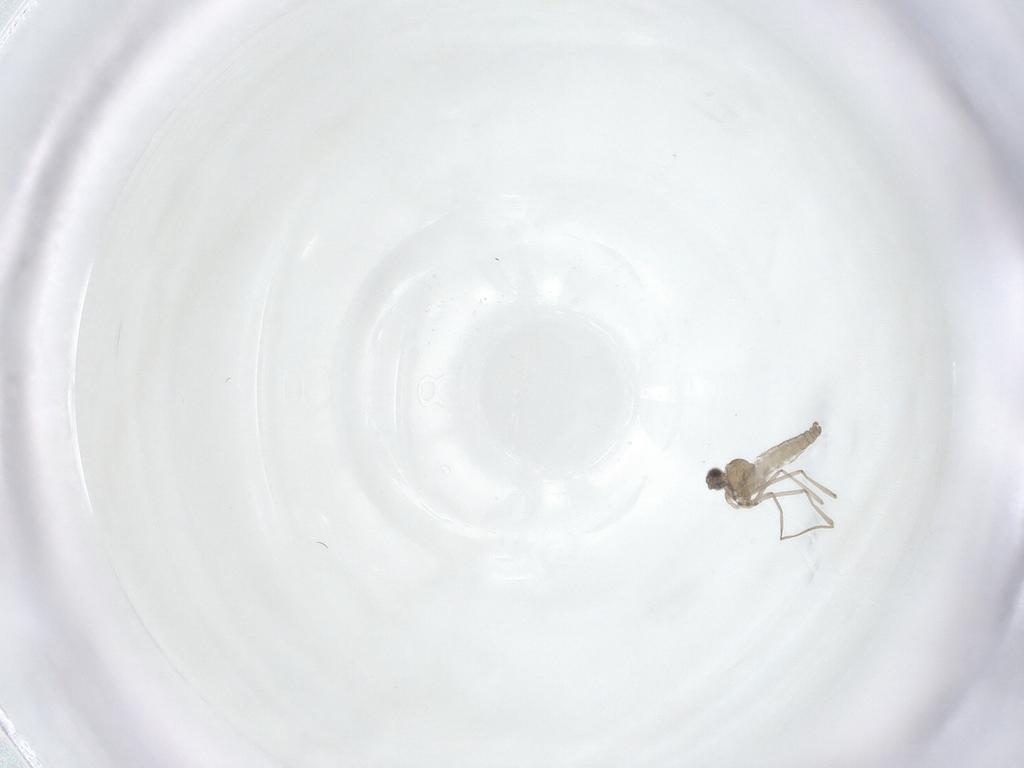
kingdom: Animalia
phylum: Arthropoda
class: Insecta
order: Diptera
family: Cecidomyiidae
